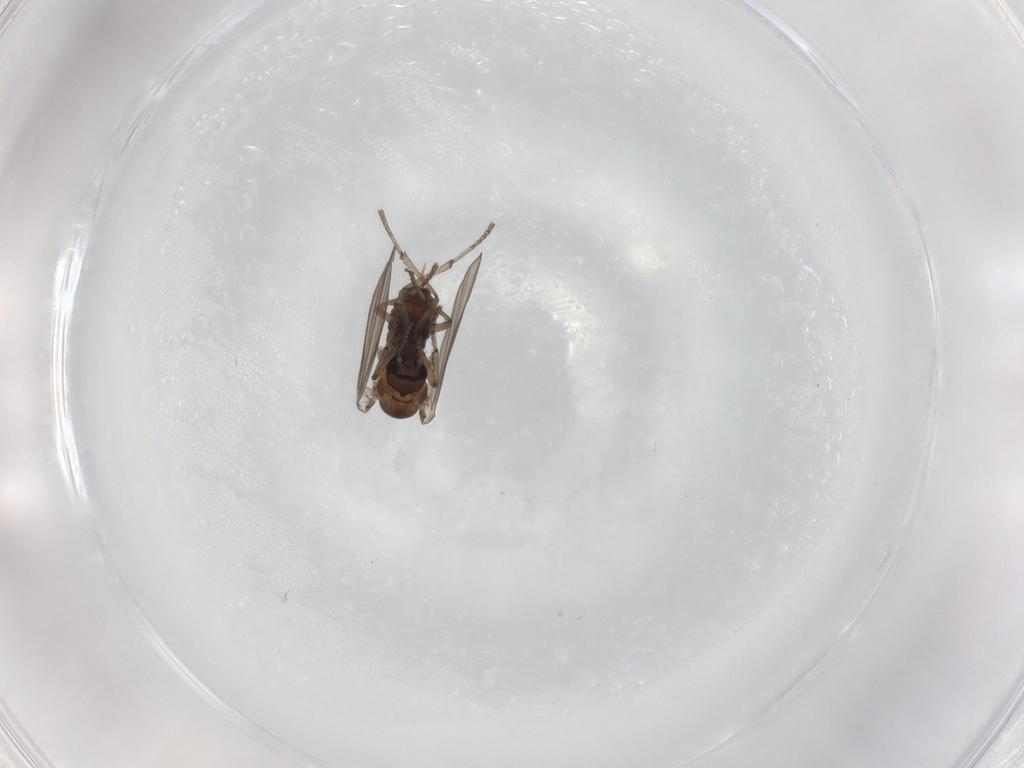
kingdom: Animalia
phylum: Arthropoda
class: Insecta
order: Diptera
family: Psychodidae
